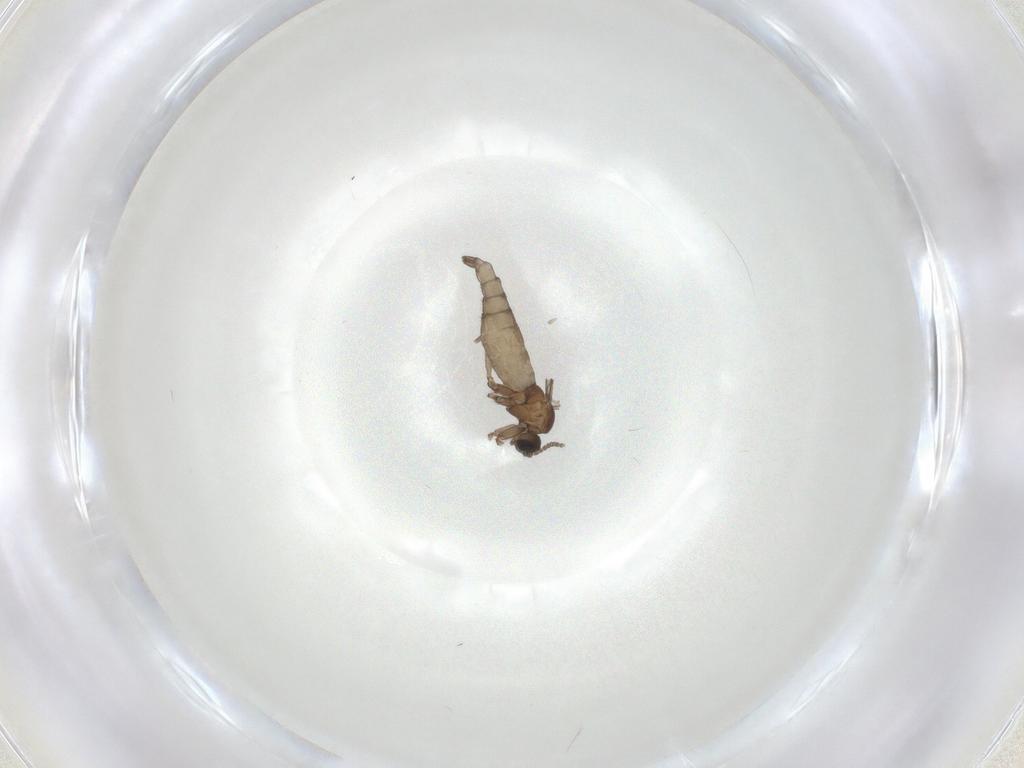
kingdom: Animalia
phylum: Arthropoda
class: Insecta
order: Diptera
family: Sciaridae
